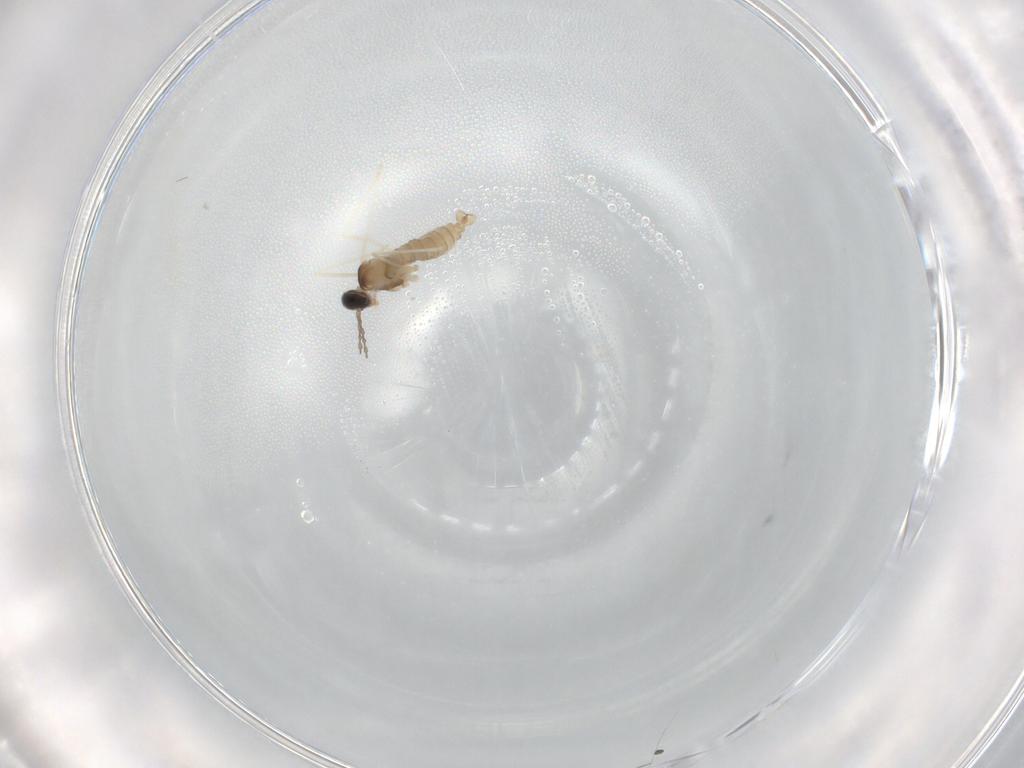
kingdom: Animalia
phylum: Arthropoda
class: Insecta
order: Diptera
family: Cecidomyiidae
